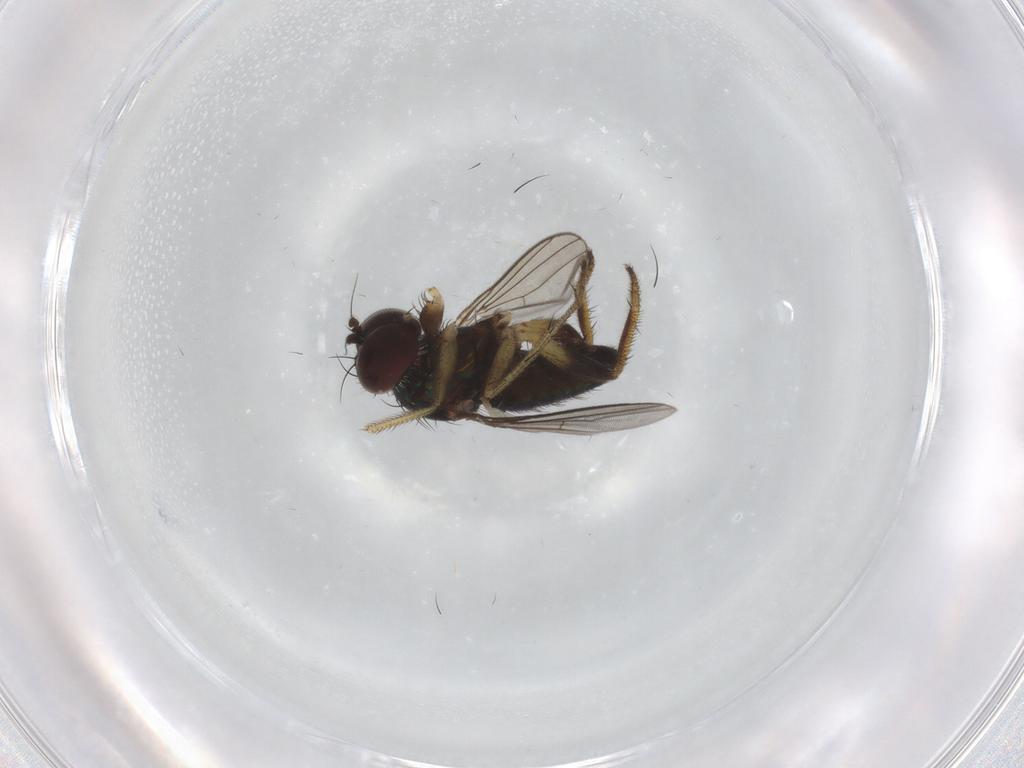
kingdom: Animalia
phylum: Arthropoda
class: Insecta
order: Diptera
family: Dolichopodidae
